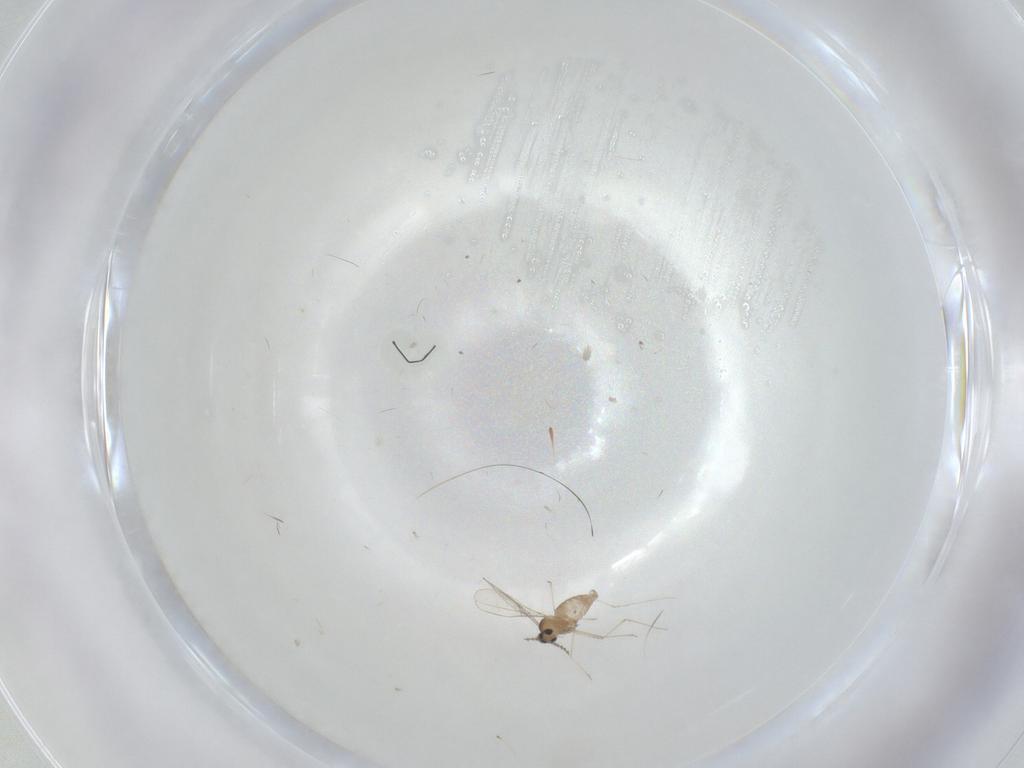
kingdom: Animalia
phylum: Arthropoda
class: Insecta
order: Diptera
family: Cecidomyiidae
